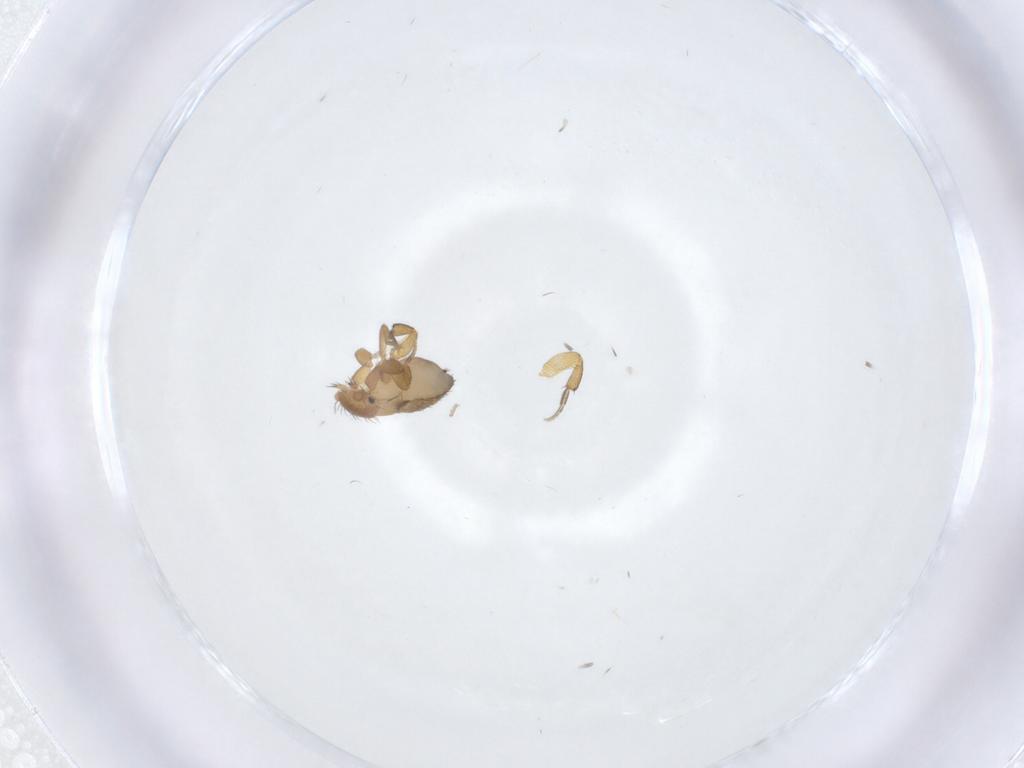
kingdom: Animalia
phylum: Arthropoda
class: Insecta
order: Diptera
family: Phoridae
